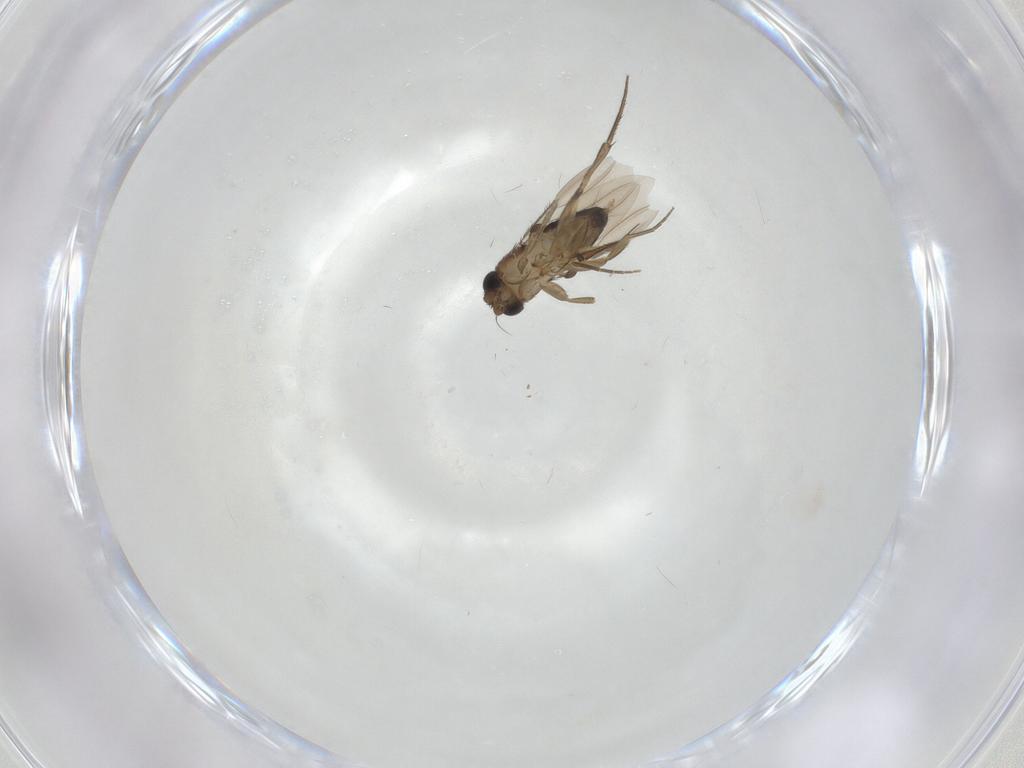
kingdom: Animalia
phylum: Arthropoda
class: Insecta
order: Diptera
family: Phoridae
